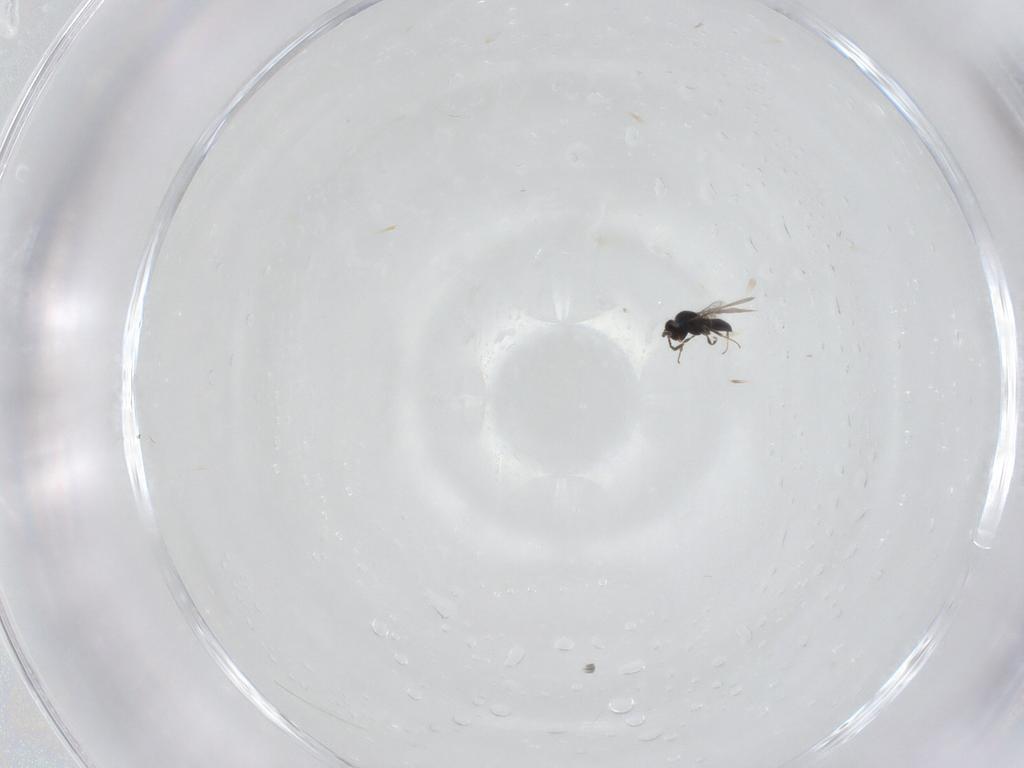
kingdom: Animalia
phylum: Arthropoda
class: Insecta
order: Hymenoptera
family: Scelionidae
